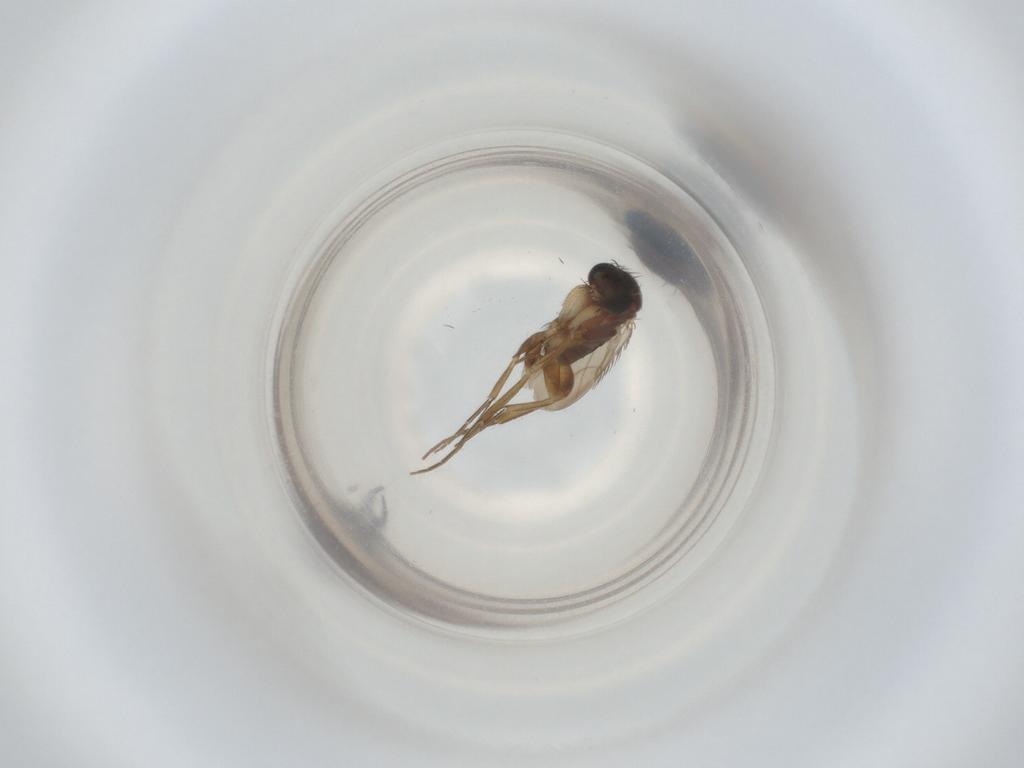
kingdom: Animalia
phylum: Arthropoda
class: Insecta
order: Diptera
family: Phoridae
